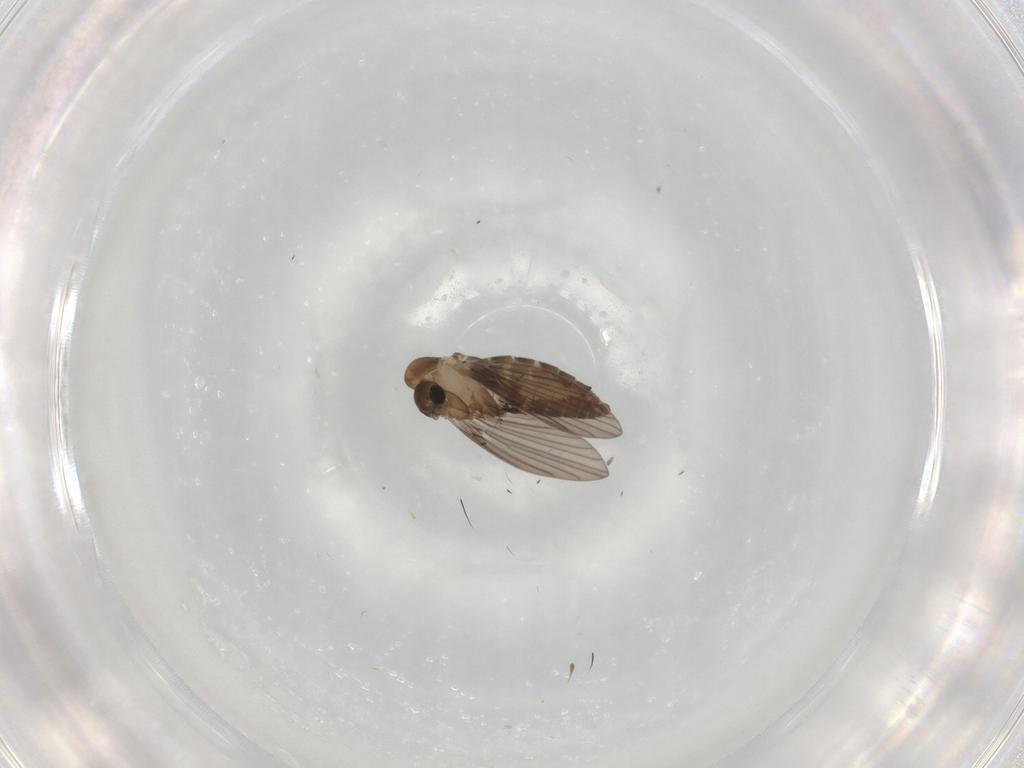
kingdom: Animalia
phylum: Arthropoda
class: Insecta
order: Diptera
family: Psychodidae
